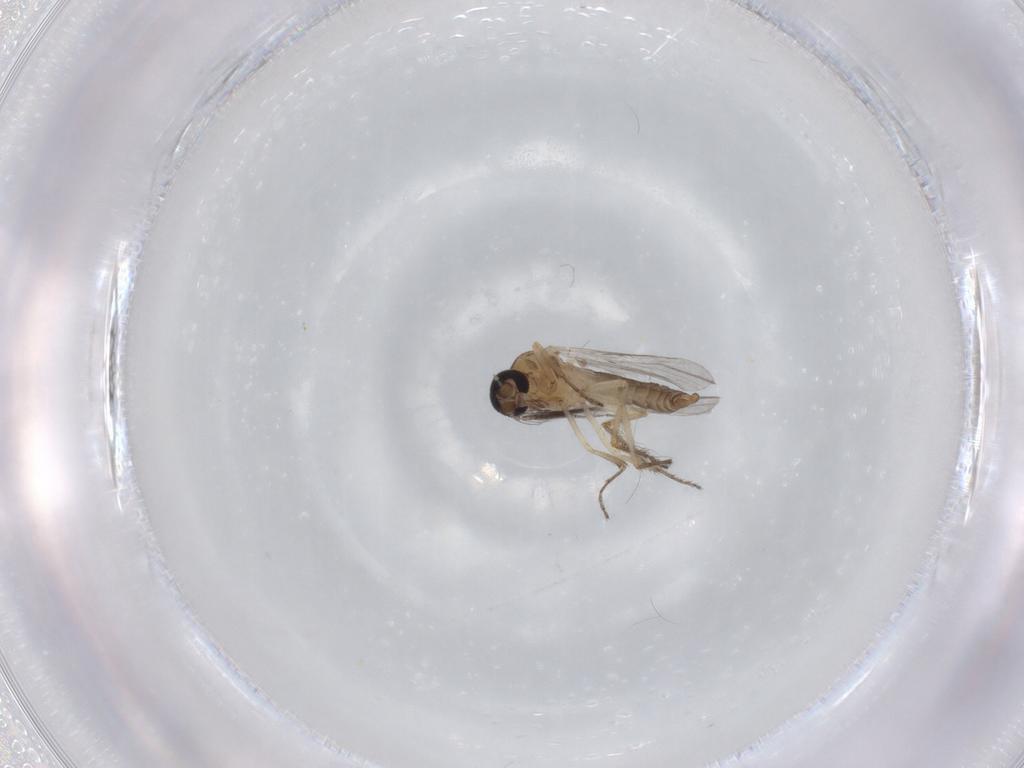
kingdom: Animalia
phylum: Arthropoda
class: Insecta
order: Diptera
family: Ceratopogonidae
